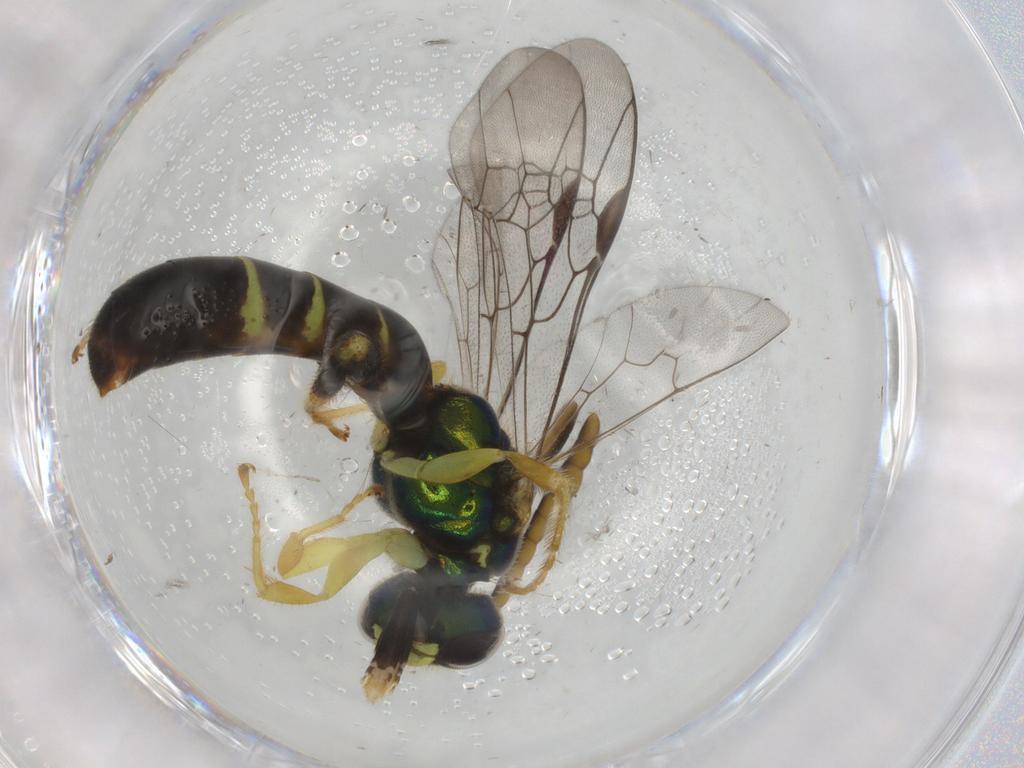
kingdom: Animalia
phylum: Arthropoda
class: Insecta
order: Hymenoptera
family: Halictidae
